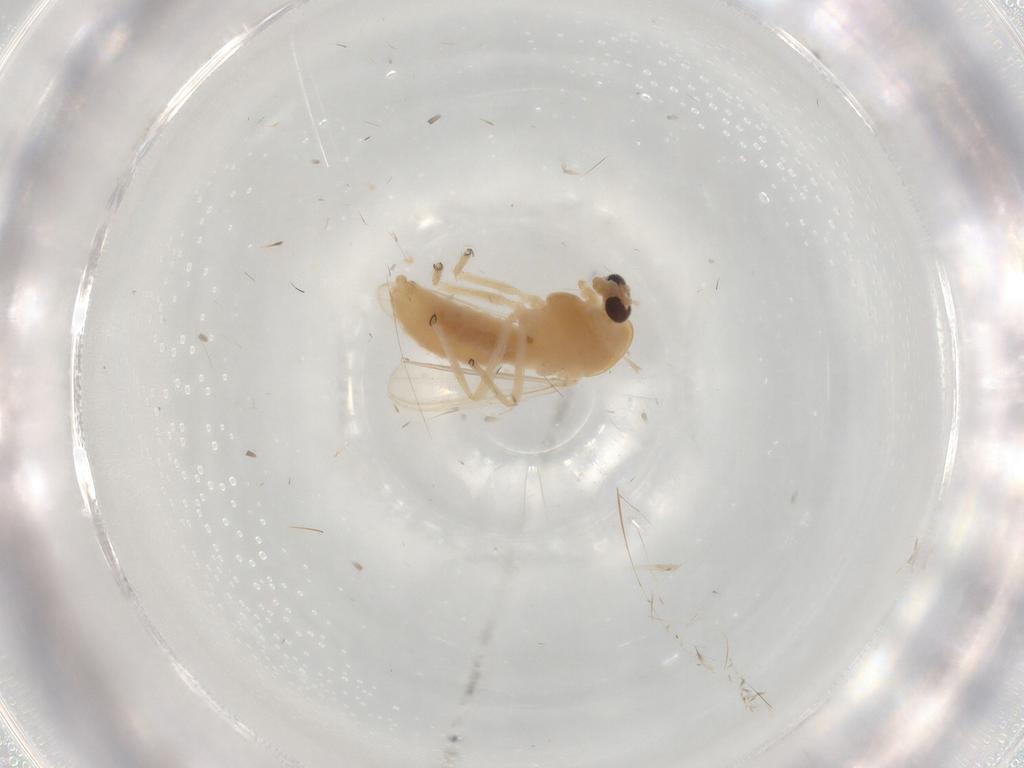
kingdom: Animalia
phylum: Arthropoda
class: Insecta
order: Diptera
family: Chironomidae
